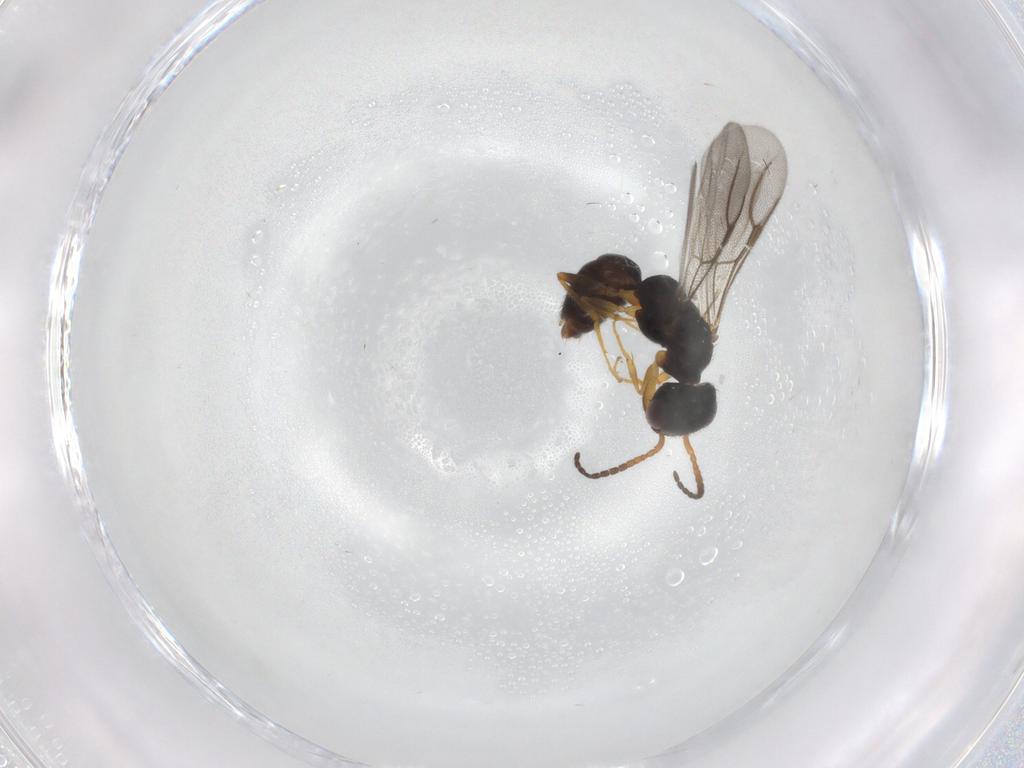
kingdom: Animalia
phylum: Arthropoda
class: Insecta
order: Hymenoptera
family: Bethylidae
